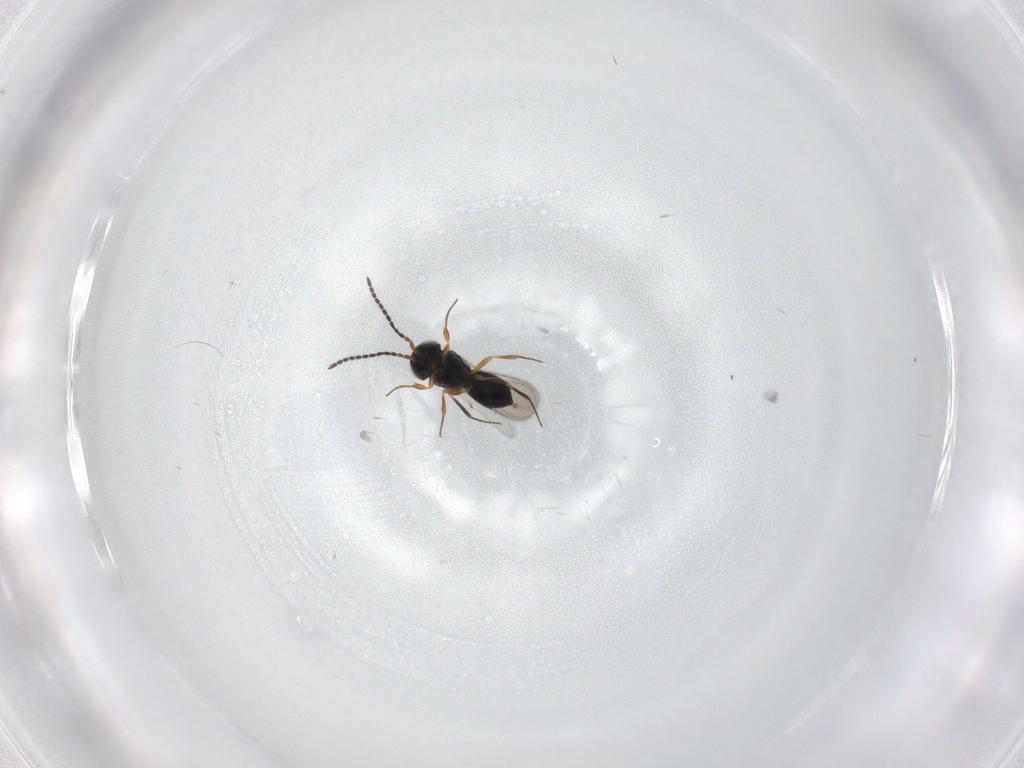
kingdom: Animalia
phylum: Arthropoda
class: Insecta
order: Hymenoptera
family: Scelionidae
